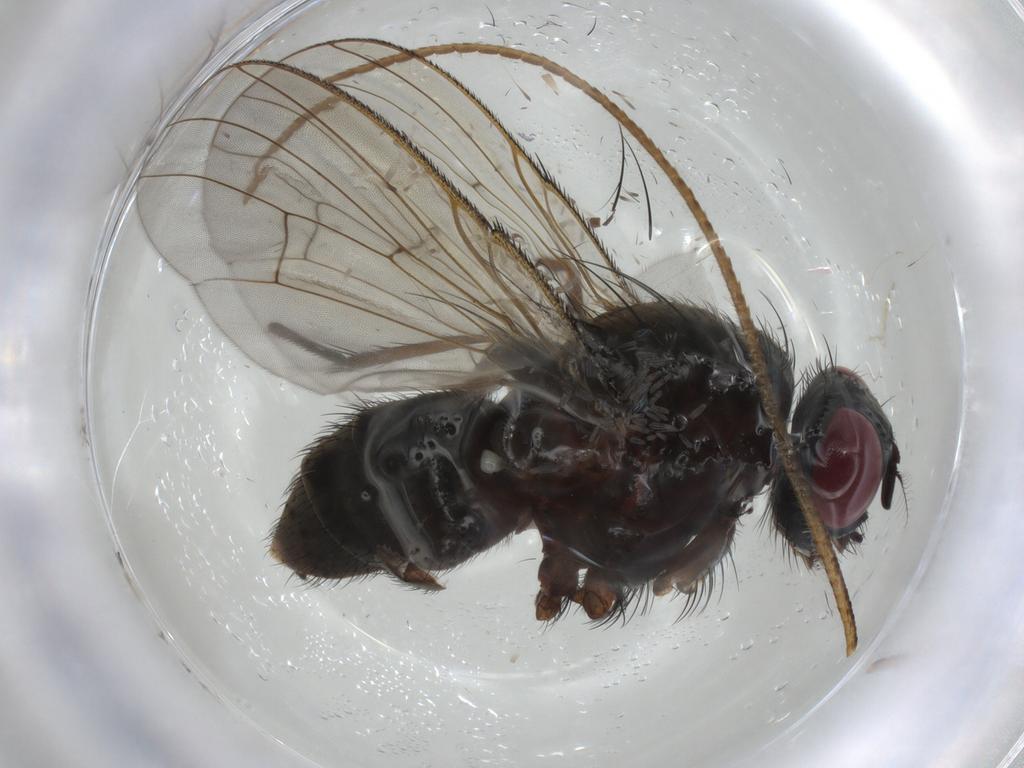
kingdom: Animalia
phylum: Arthropoda
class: Insecta
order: Diptera
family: Muscidae
